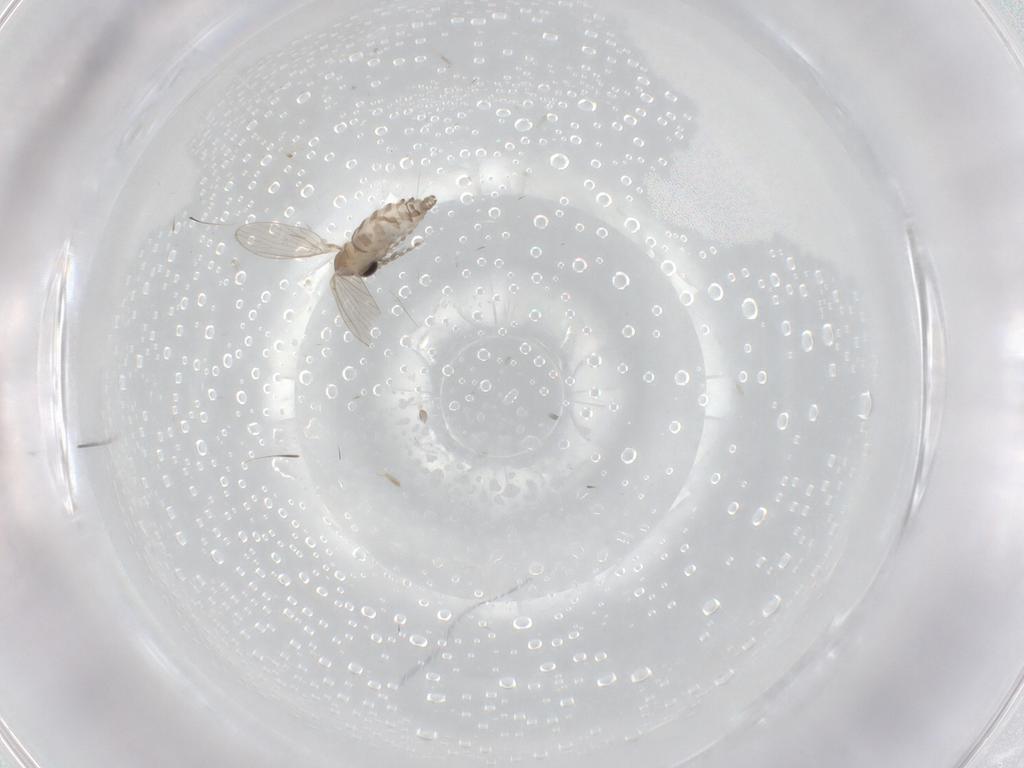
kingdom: Animalia
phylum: Arthropoda
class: Insecta
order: Diptera
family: Psychodidae
